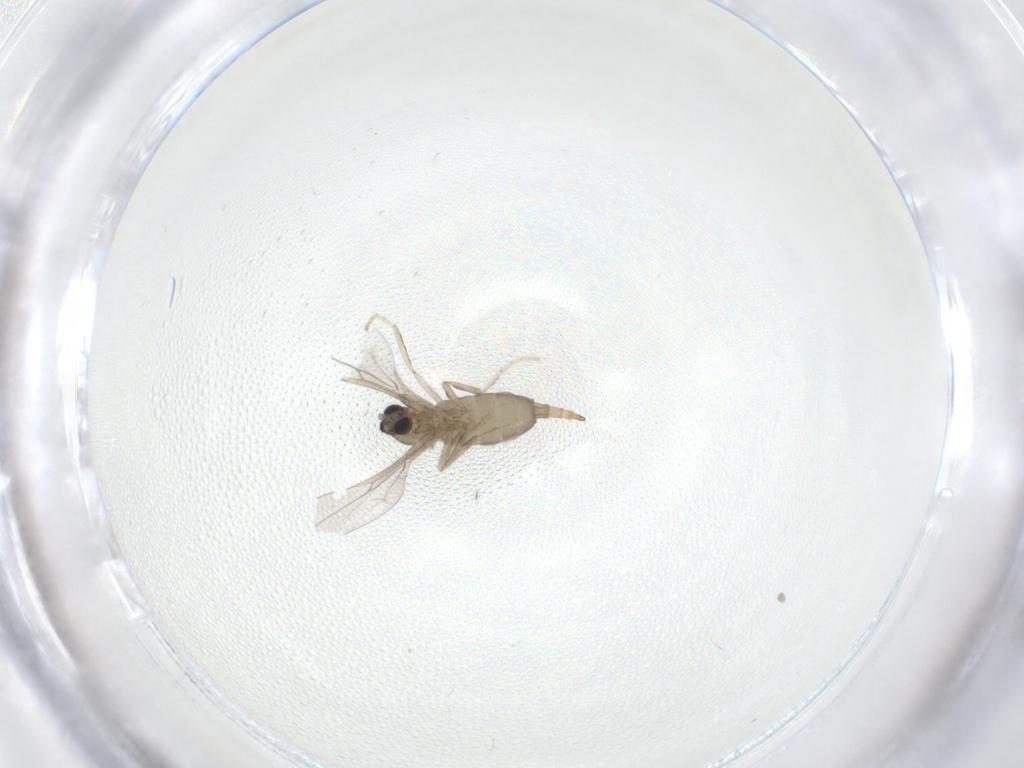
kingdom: Animalia
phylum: Arthropoda
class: Insecta
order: Diptera
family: Cecidomyiidae
